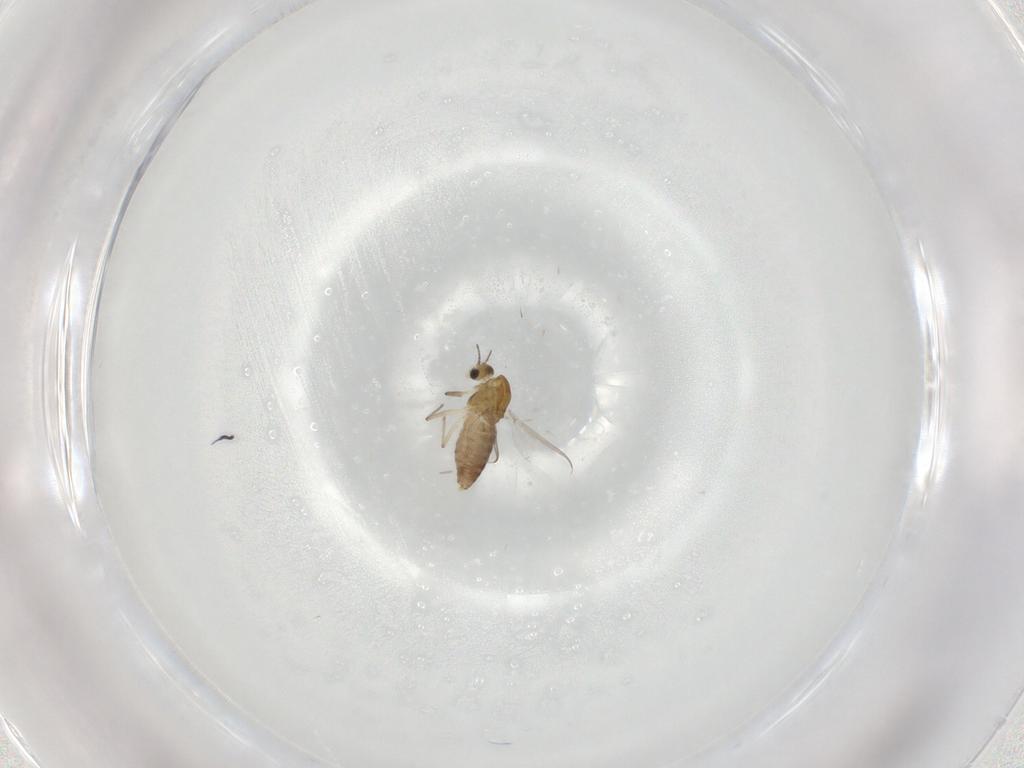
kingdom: Animalia
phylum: Arthropoda
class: Insecta
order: Diptera
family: Chironomidae
